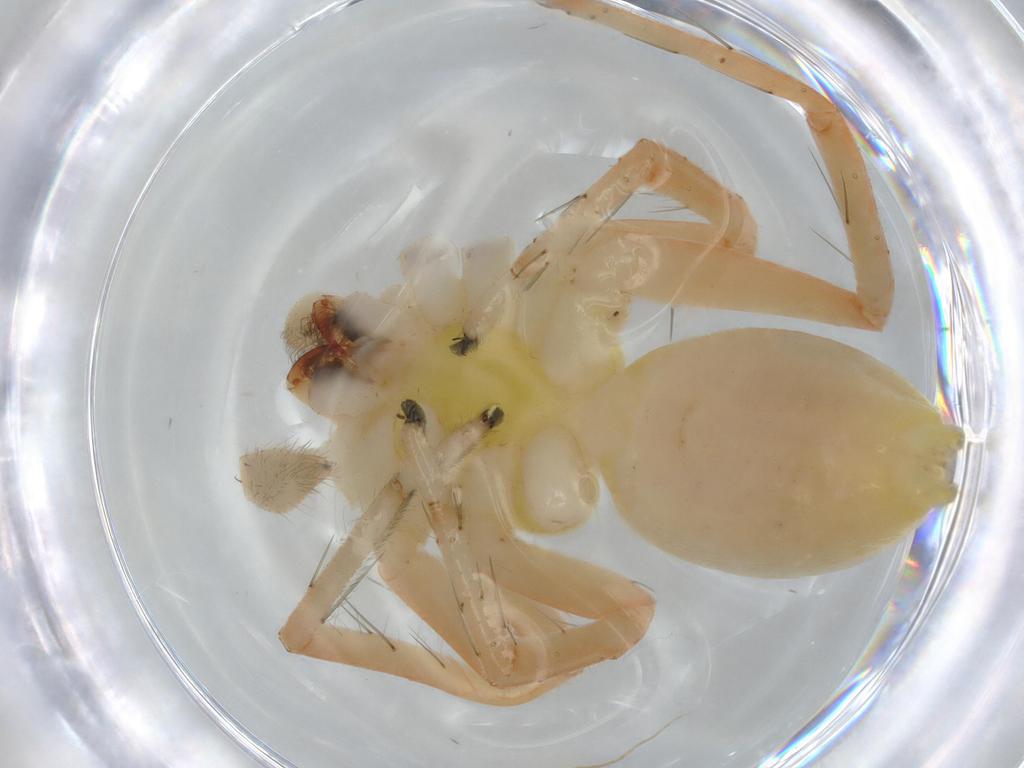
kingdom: Animalia
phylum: Arthropoda
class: Arachnida
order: Araneae
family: Anyphaenidae
